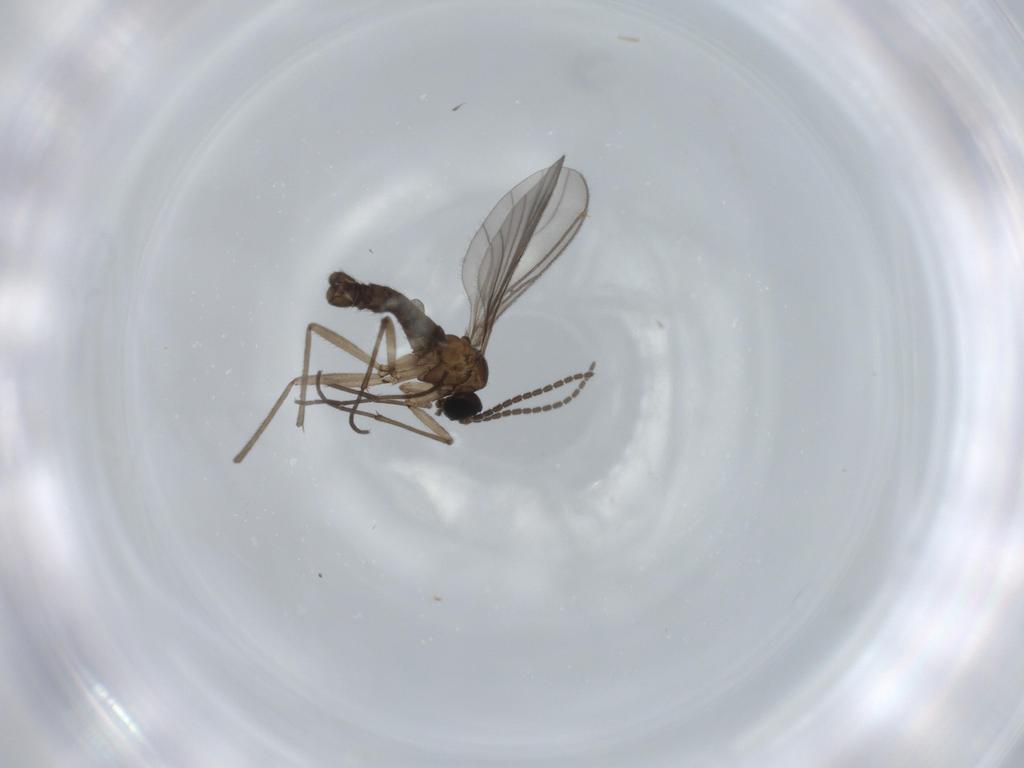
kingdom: Animalia
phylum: Arthropoda
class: Insecta
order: Diptera
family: Sciaridae
